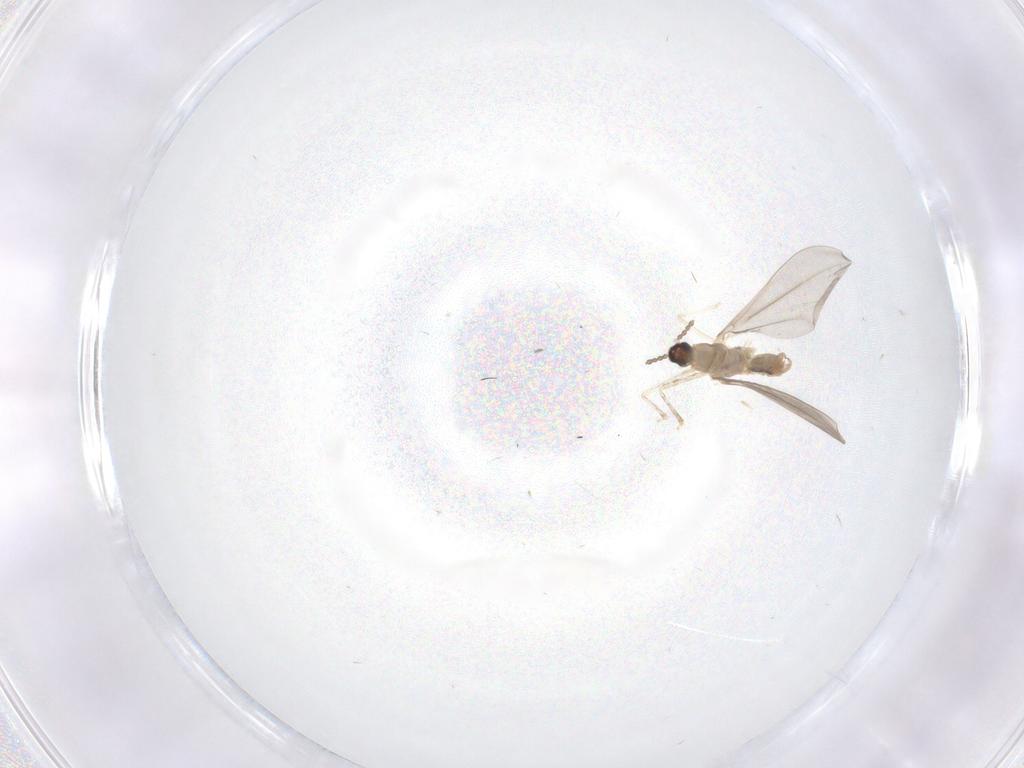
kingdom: Animalia
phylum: Arthropoda
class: Insecta
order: Diptera
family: Cecidomyiidae
